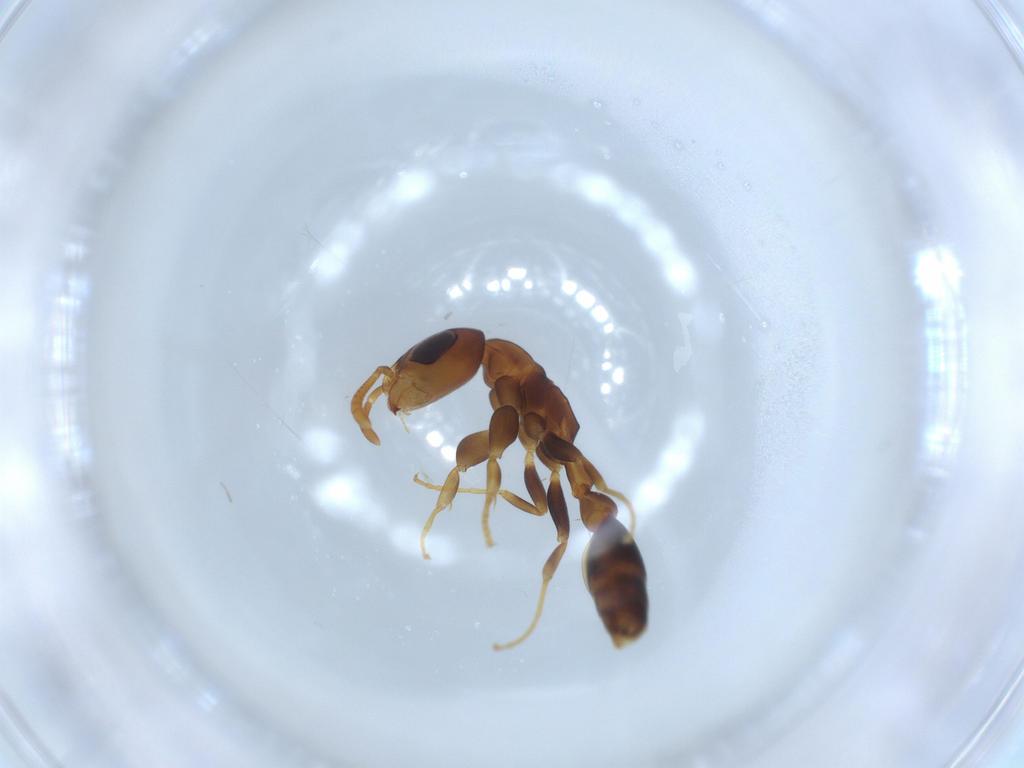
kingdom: Animalia
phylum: Arthropoda
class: Insecta
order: Hymenoptera
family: Formicidae
